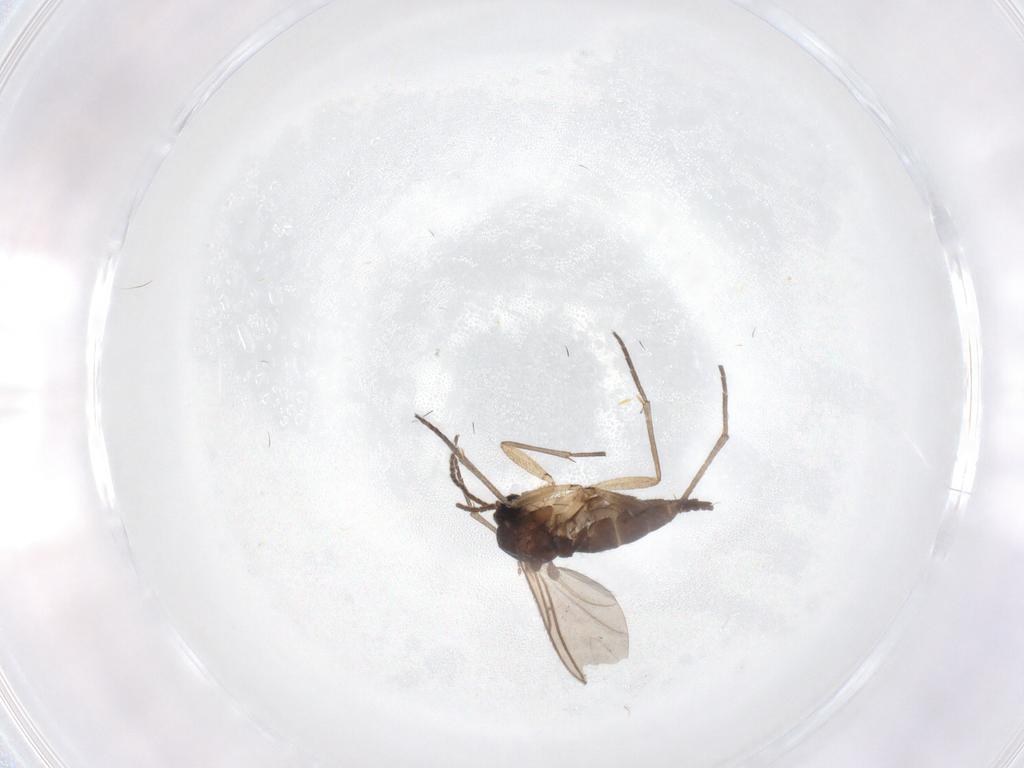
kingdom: Animalia
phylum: Arthropoda
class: Insecta
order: Diptera
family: Sciaridae
